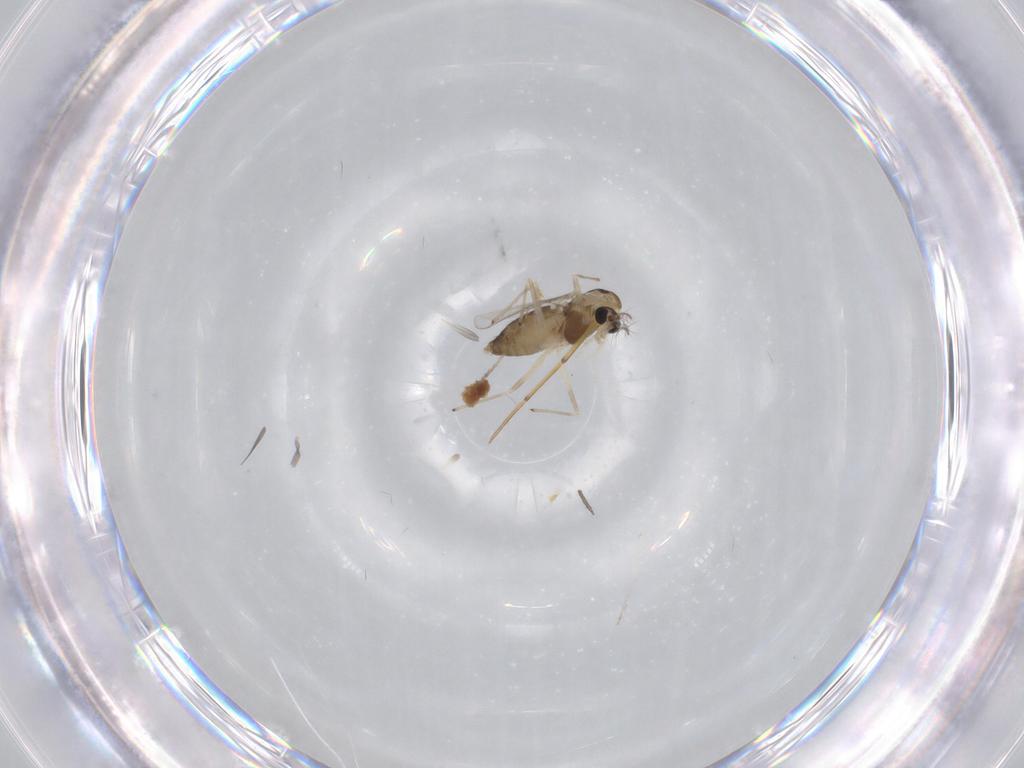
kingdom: Animalia
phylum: Arthropoda
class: Insecta
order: Diptera
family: Chironomidae
